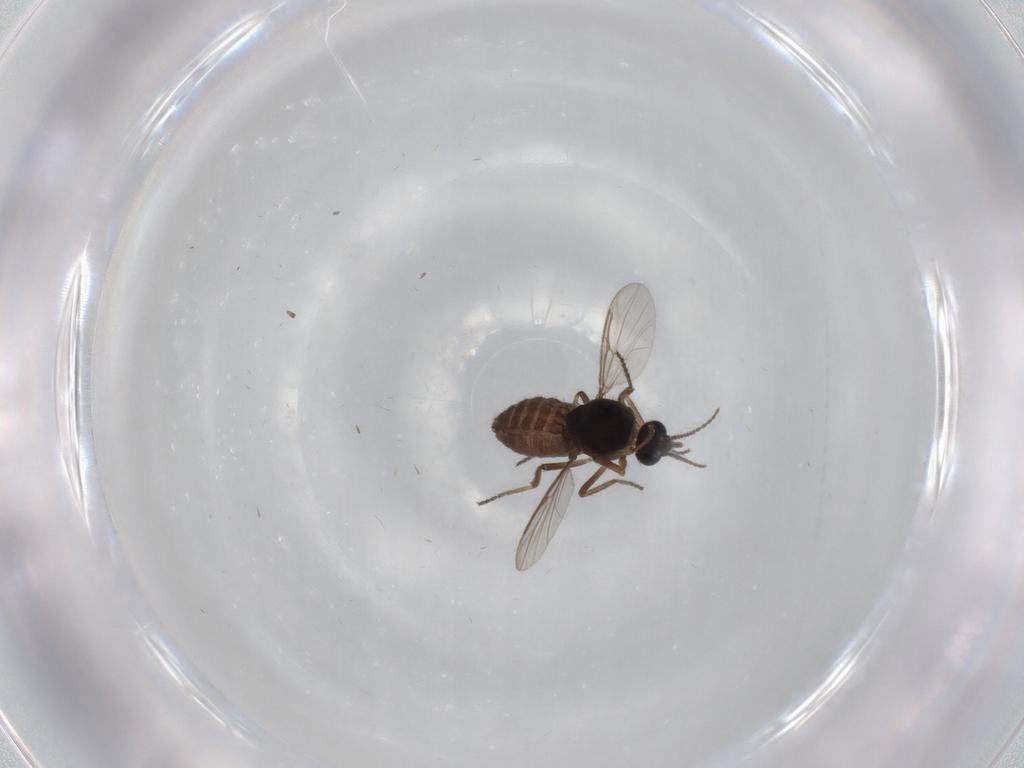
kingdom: Animalia
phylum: Arthropoda
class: Insecta
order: Diptera
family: Ceratopogonidae
